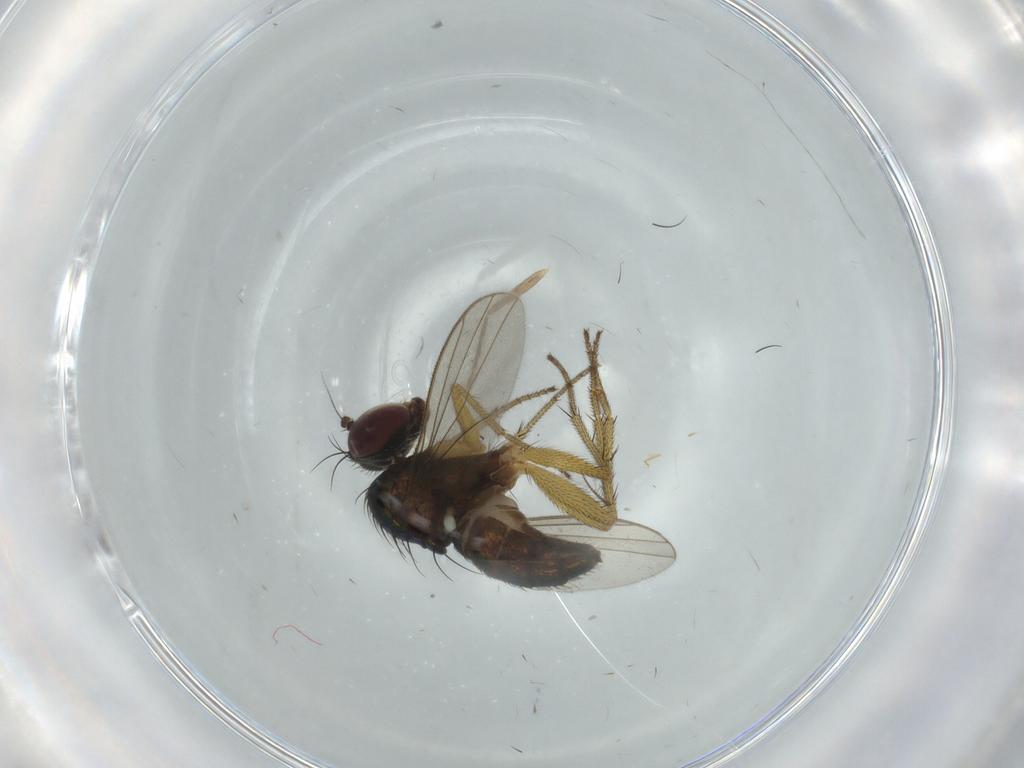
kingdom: Animalia
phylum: Arthropoda
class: Insecta
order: Diptera
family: Dolichopodidae
